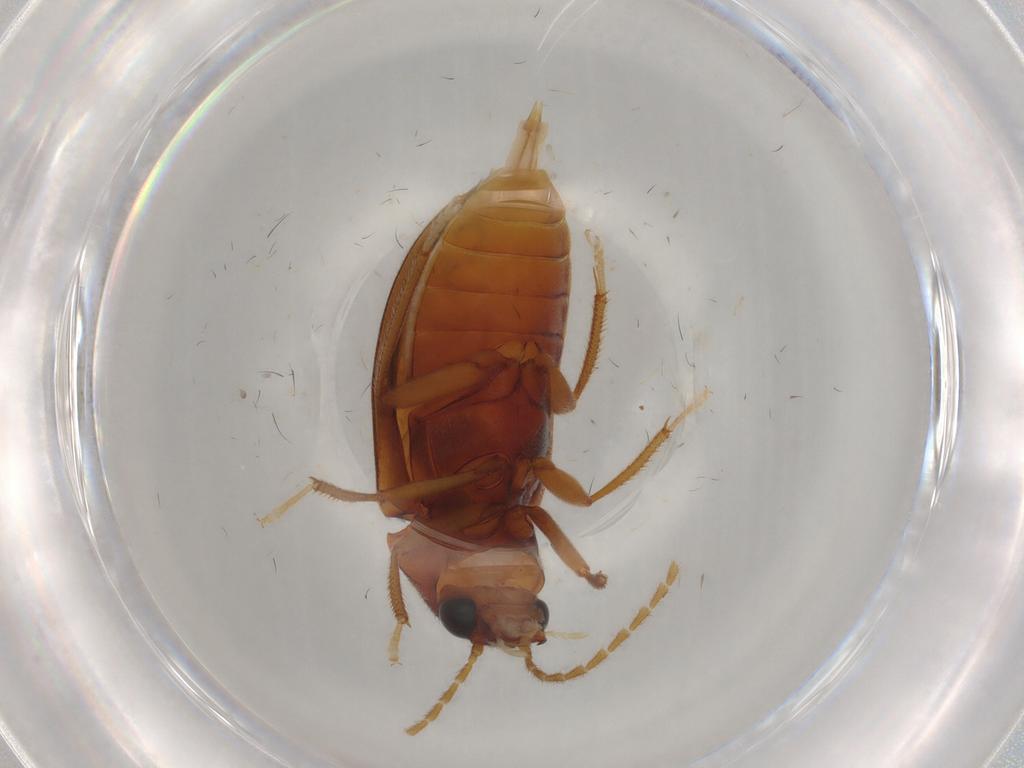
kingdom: Animalia
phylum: Arthropoda
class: Insecta
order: Coleoptera
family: Ptilodactylidae
